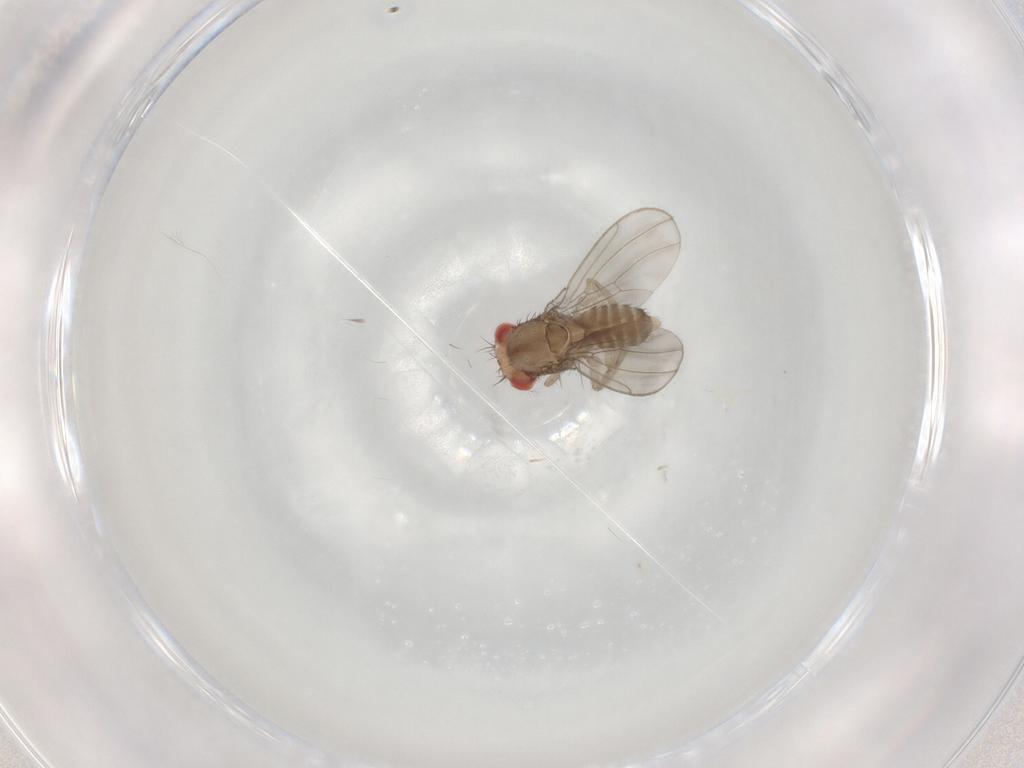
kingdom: Animalia
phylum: Arthropoda
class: Insecta
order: Diptera
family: Drosophilidae
